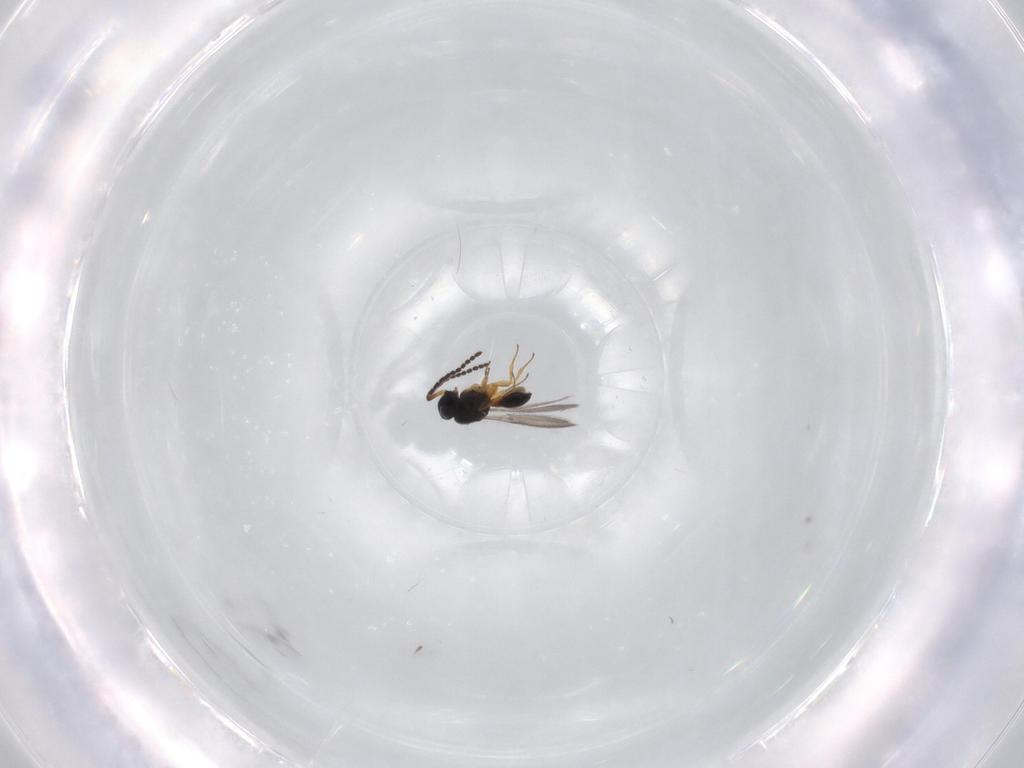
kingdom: Animalia
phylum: Arthropoda
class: Insecta
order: Hymenoptera
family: Scelionidae
